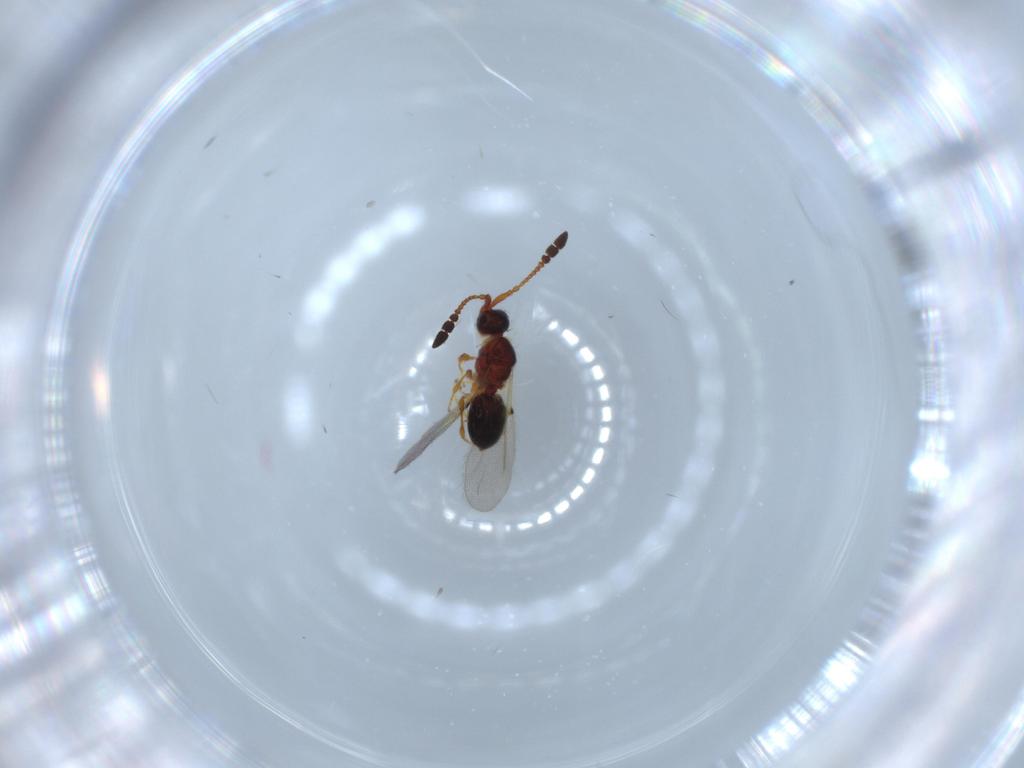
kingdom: Animalia
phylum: Arthropoda
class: Insecta
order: Hymenoptera
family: Diapriidae
